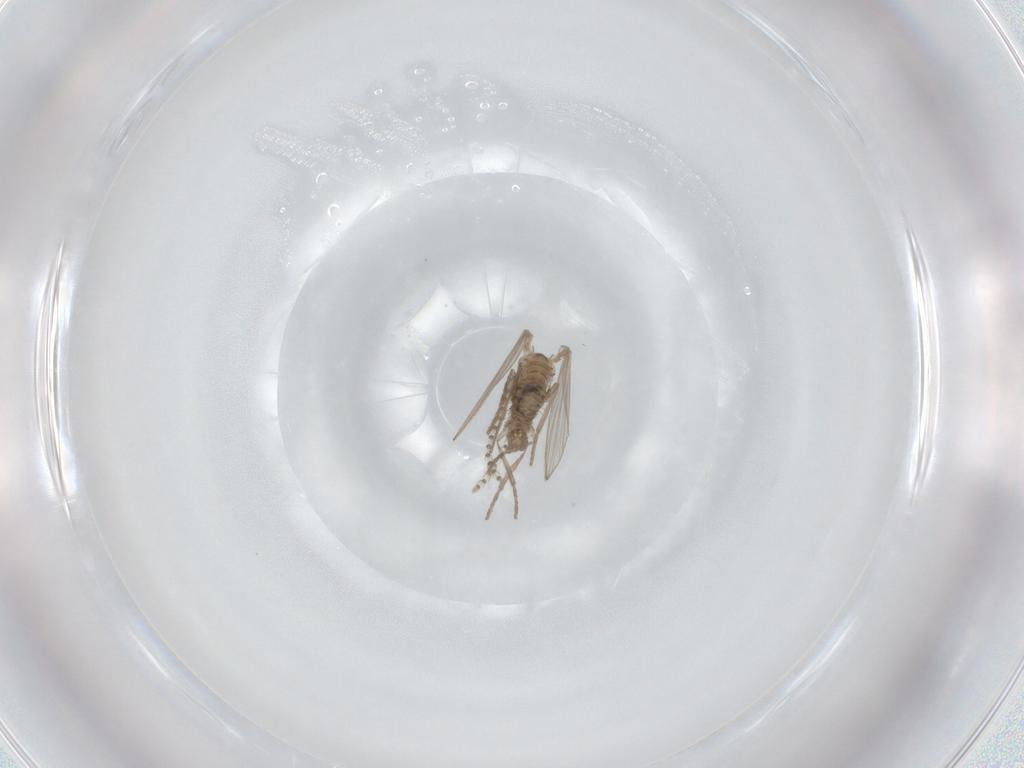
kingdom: Animalia
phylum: Arthropoda
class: Insecta
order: Diptera
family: Psychodidae
